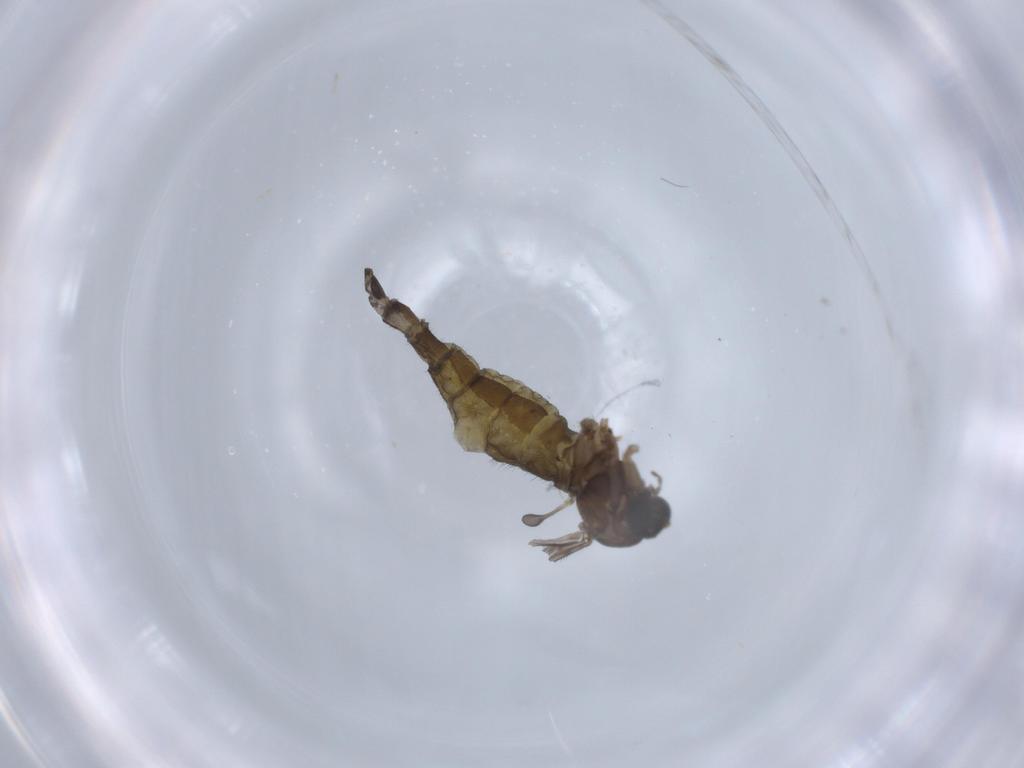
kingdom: Animalia
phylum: Arthropoda
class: Insecta
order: Diptera
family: Sciaridae
